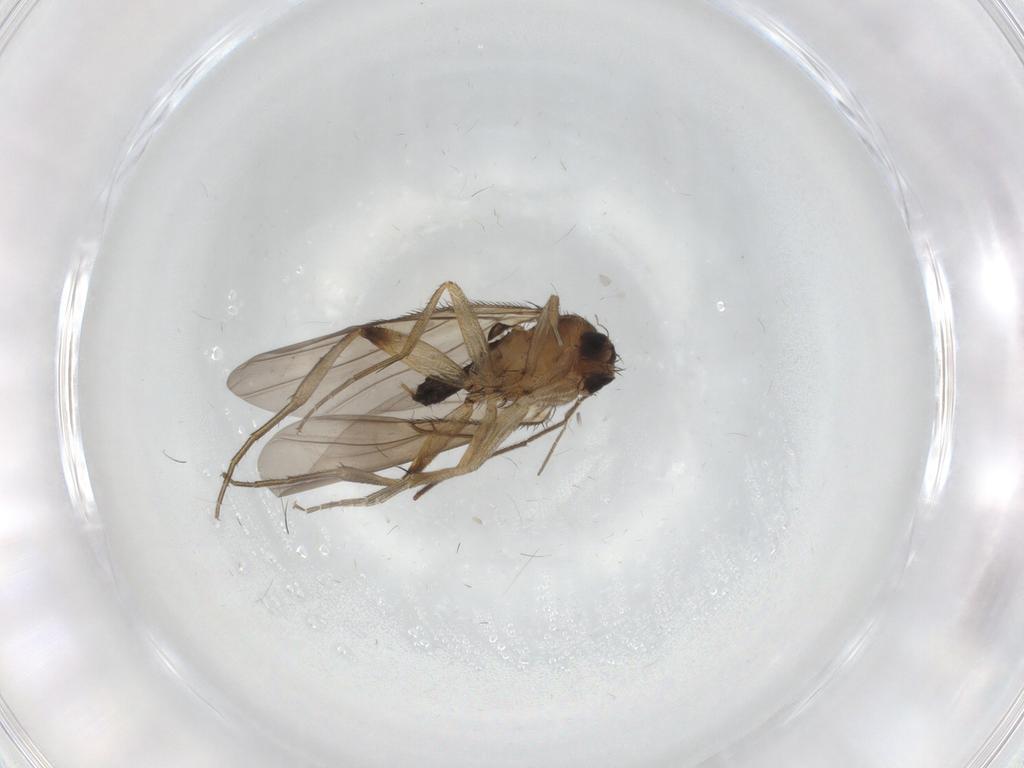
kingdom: Animalia
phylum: Arthropoda
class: Insecta
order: Diptera
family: Phoridae
